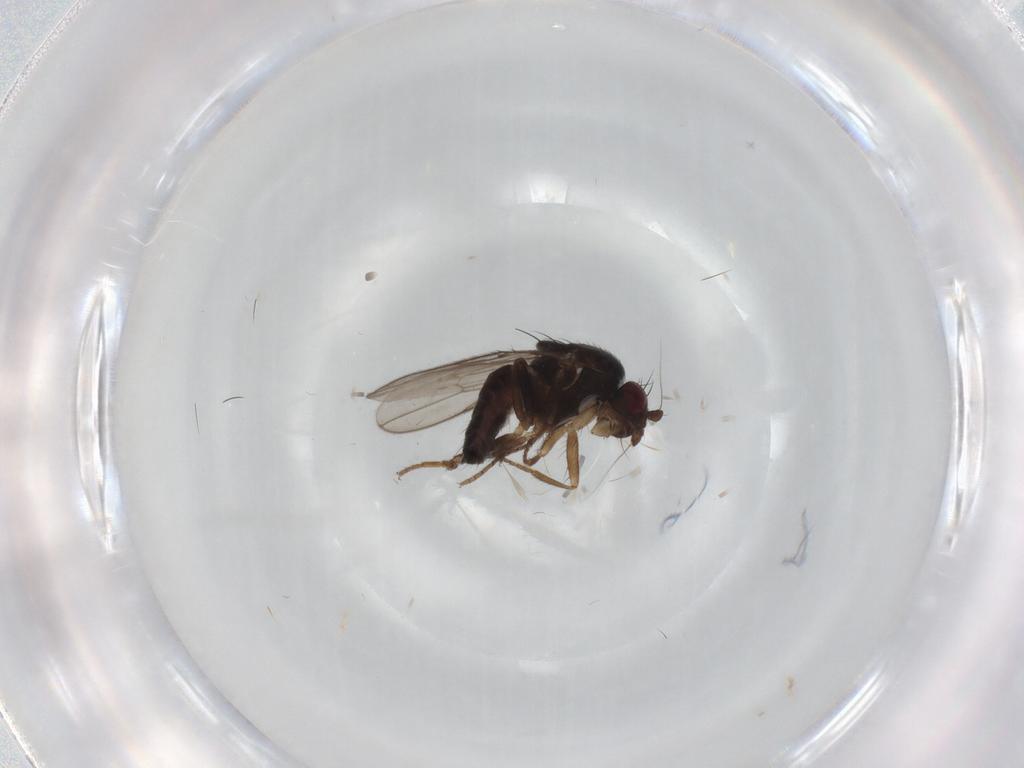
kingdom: Animalia
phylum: Arthropoda
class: Insecta
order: Diptera
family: Sphaeroceridae
